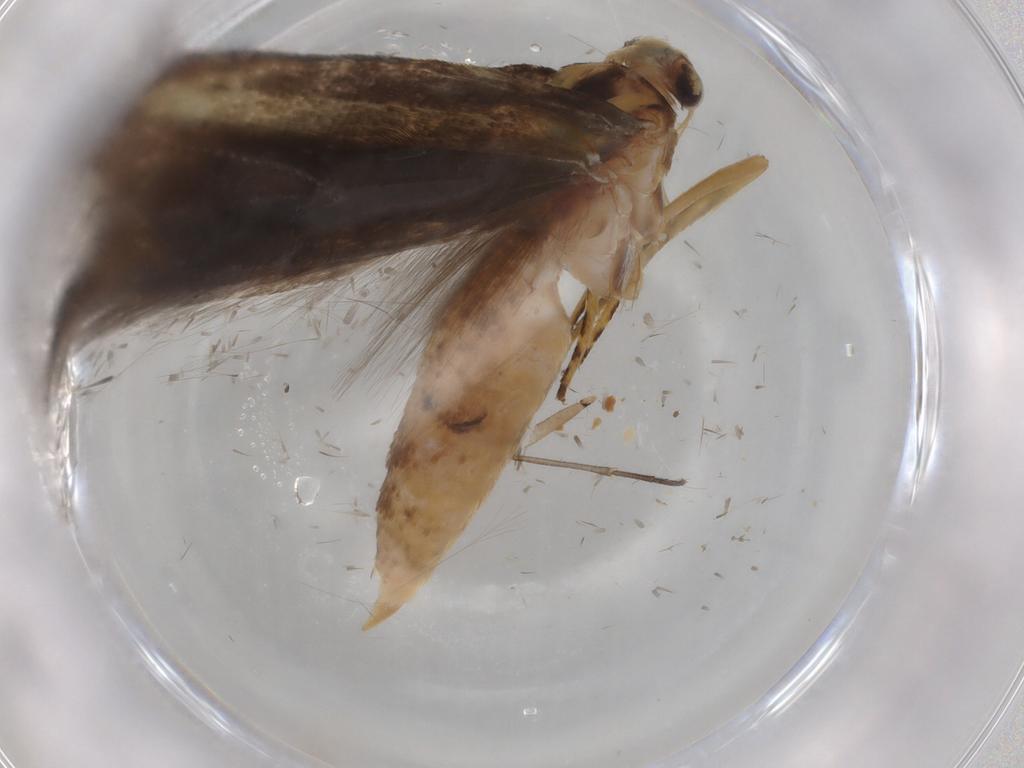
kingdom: Animalia
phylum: Arthropoda
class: Insecta
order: Lepidoptera
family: Cosmopterigidae
